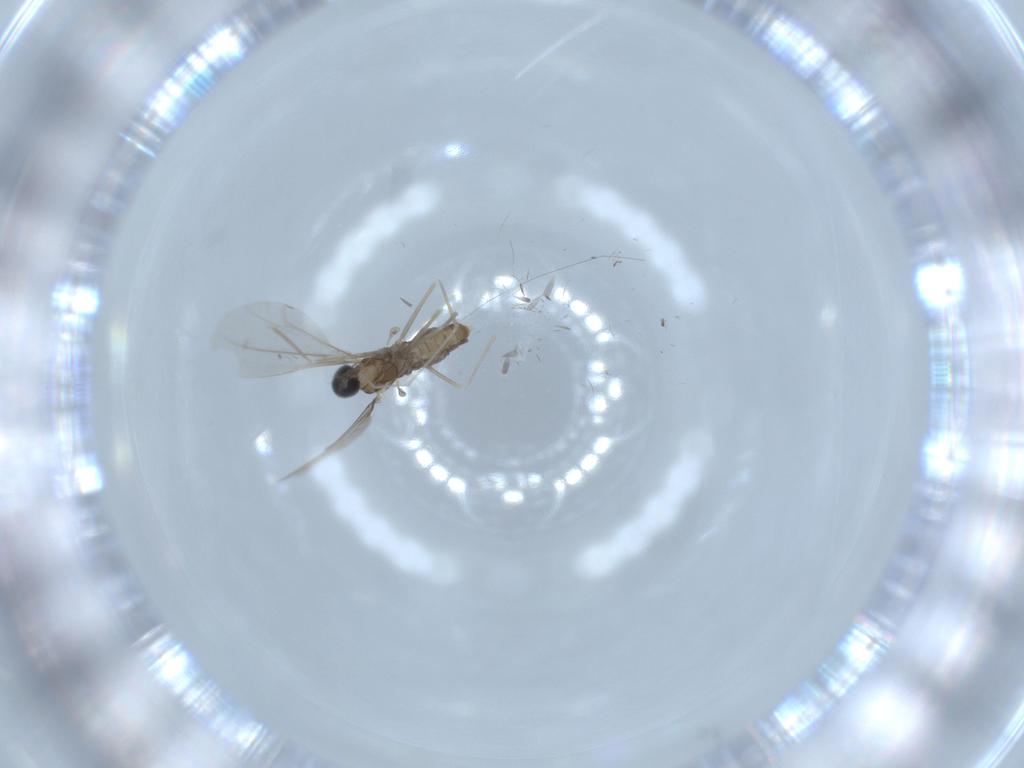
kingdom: Animalia
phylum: Arthropoda
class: Insecta
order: Diptera
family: Cecidomyiidae
